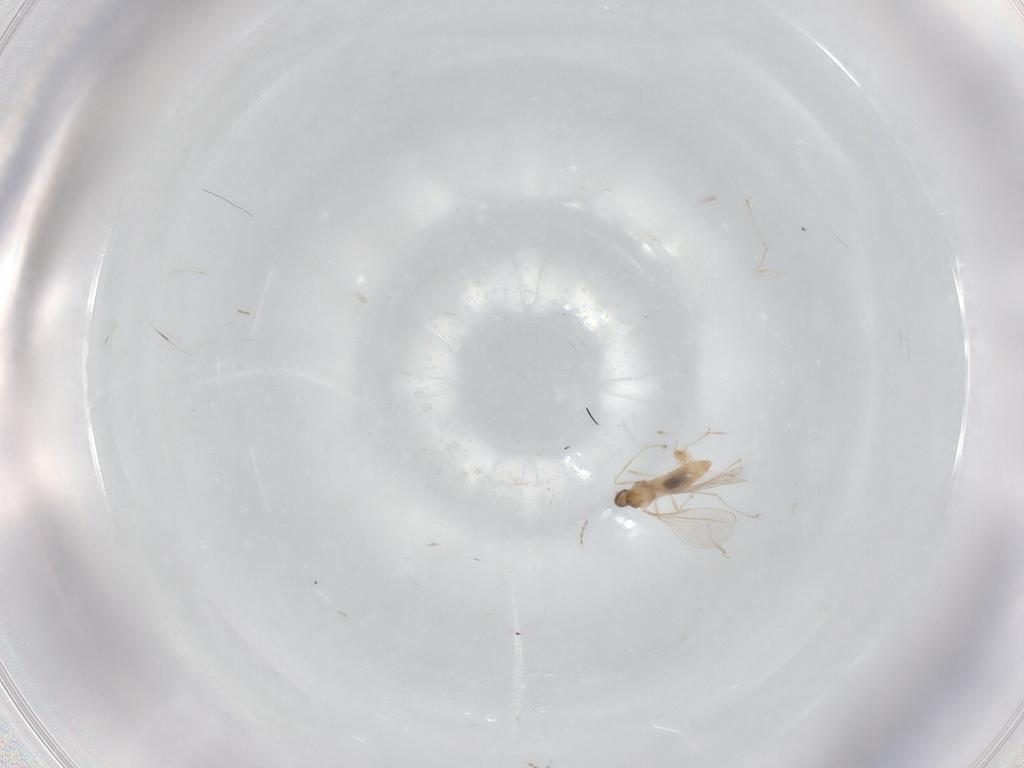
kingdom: Animalia
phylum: Arthropoda
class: Insecta
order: Diptera
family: Cecidomyiidae
